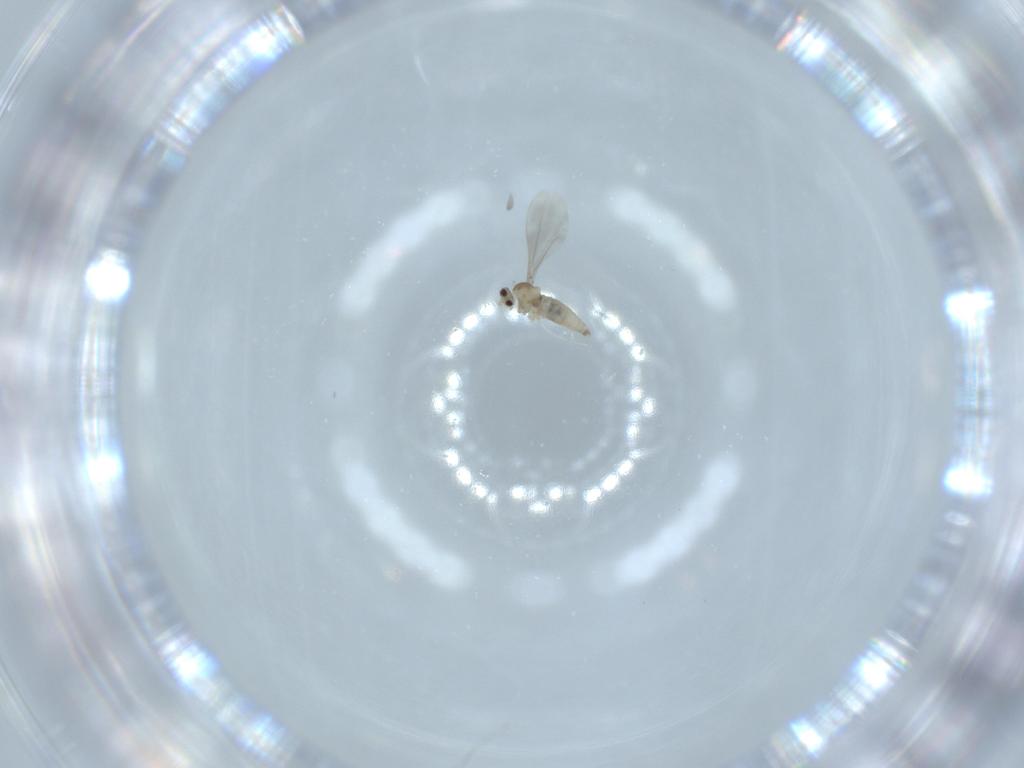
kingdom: Animalia
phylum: Arthropoda
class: Insecta
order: Diptera
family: Cecidomyiidae
